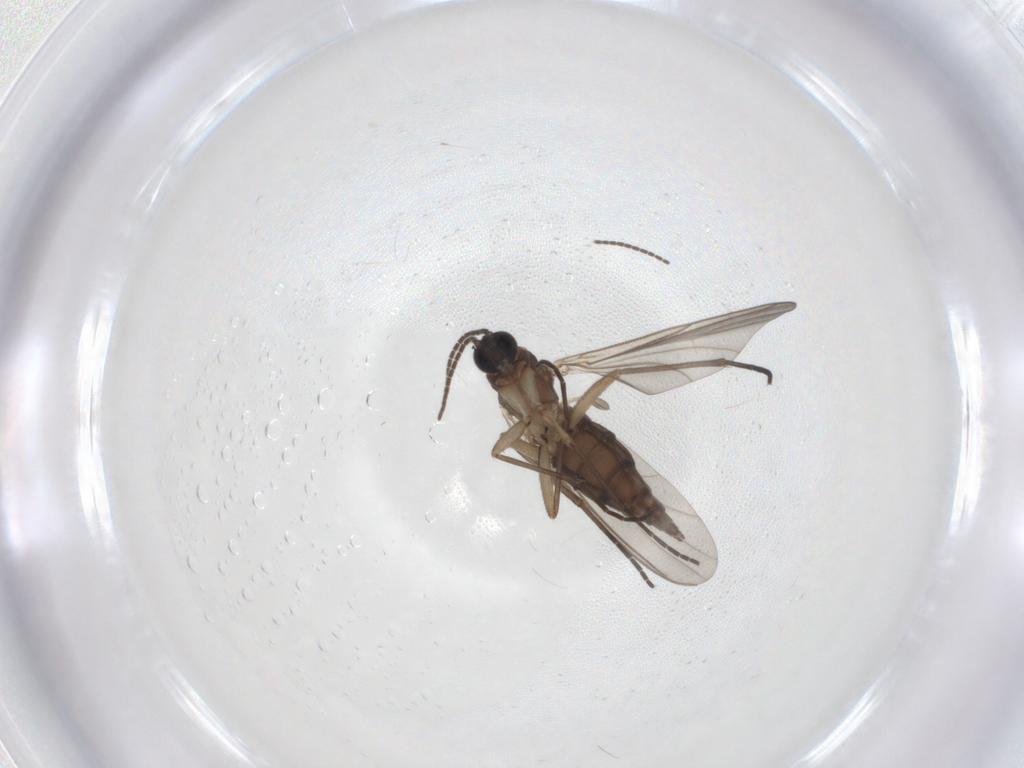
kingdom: Animalia
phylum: Arthropoda
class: Insecta
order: Diptera
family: Sciaridae
